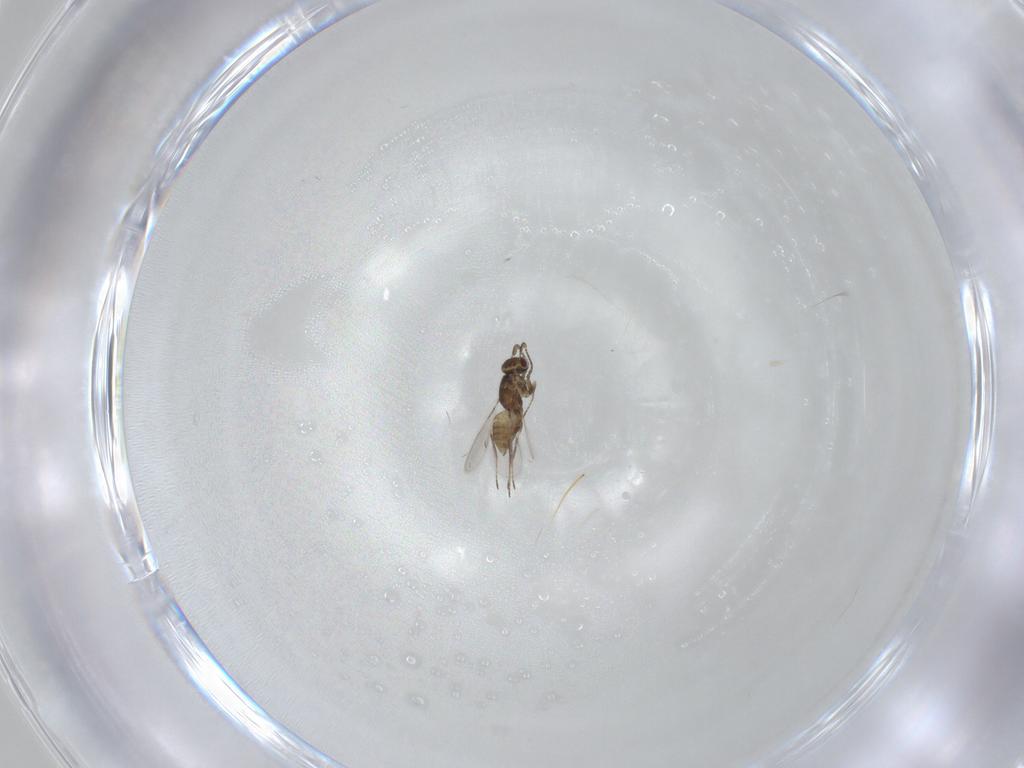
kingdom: Animalia
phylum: Arthropoda
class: Insecta
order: Hymenoptera
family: Mymaridae
